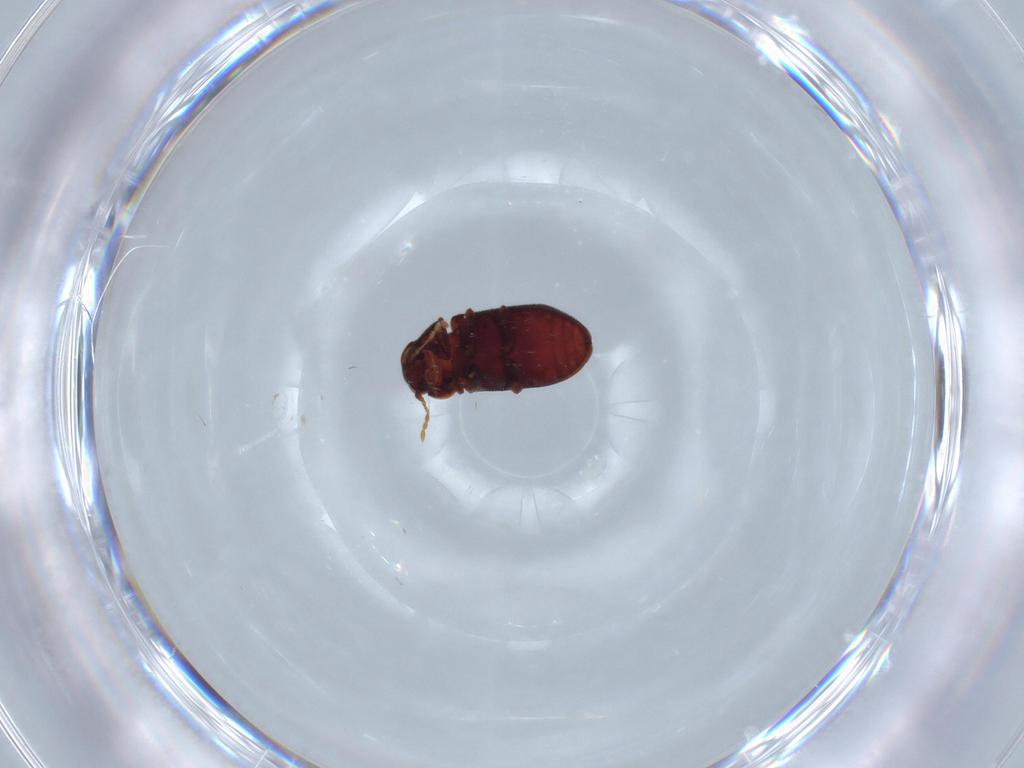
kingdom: Animalia
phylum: Arthropoda
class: Insecta
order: Coleoptera
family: Ptinidae
